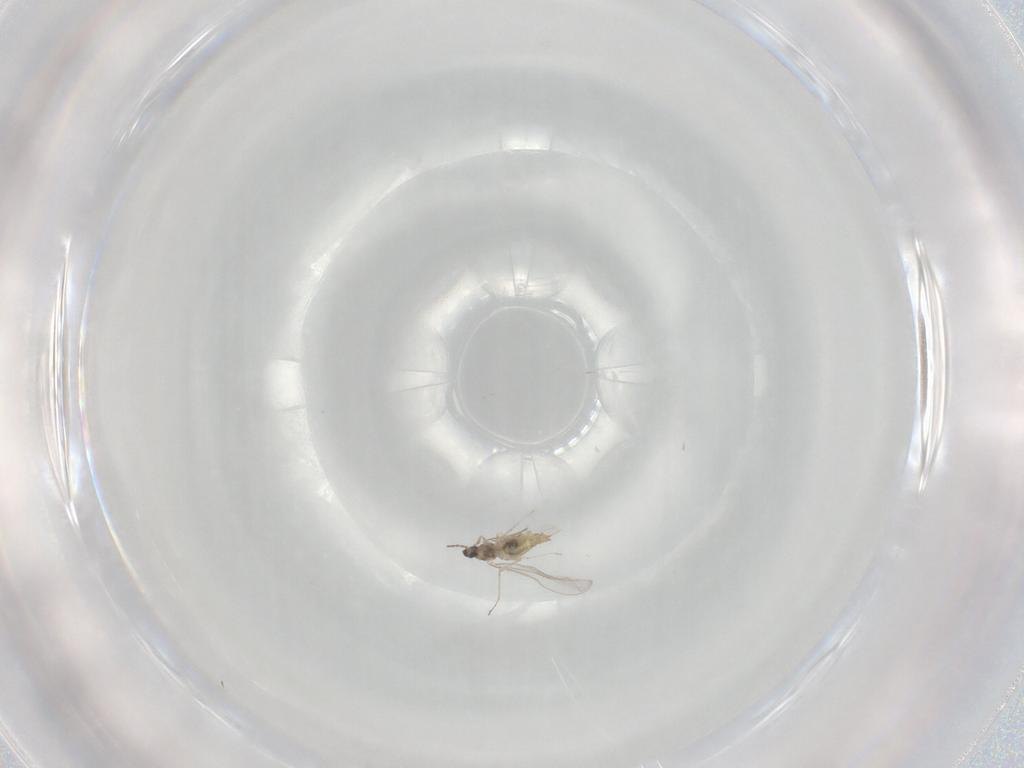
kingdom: Animalia
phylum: Arthropoda
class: Insecta
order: Diptera
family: Cecidomyiidae
